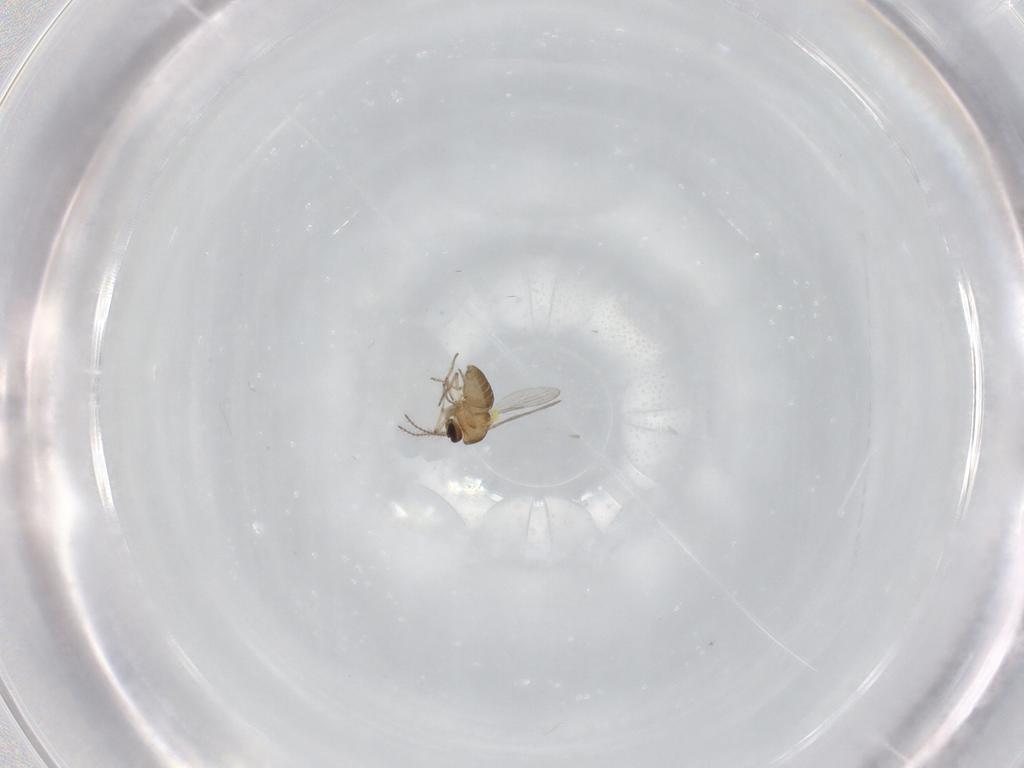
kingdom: Animalia
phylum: Arthropoda
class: Insecta
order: Diptera
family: Ceratopogonidae
